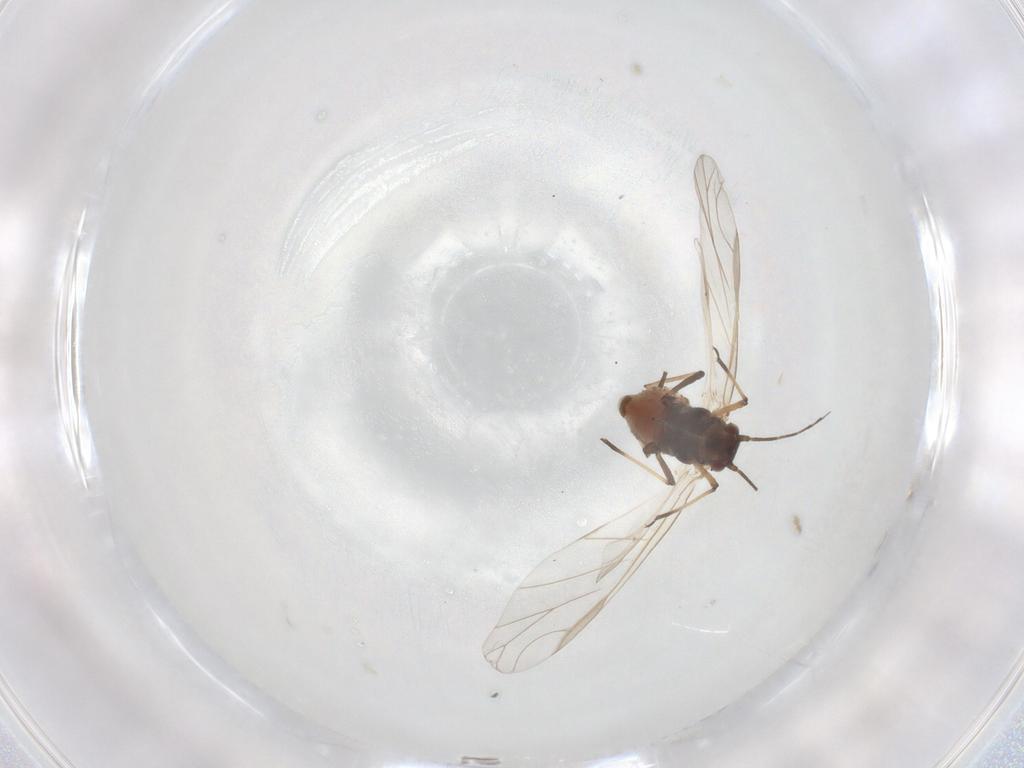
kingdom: Animalia
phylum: Arthropoda
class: Insecta
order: Hemiptera
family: Aphididae
